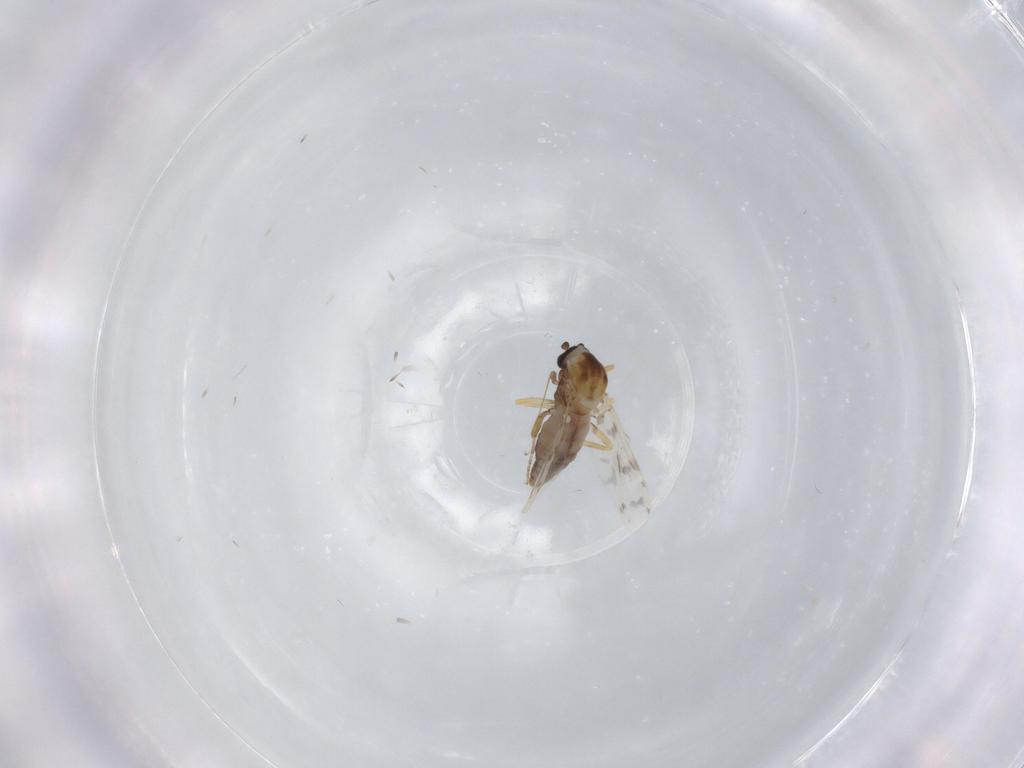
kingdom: Animalia
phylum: Arthropoda
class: Insecta
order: Diptera
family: Ceratopogonidae
